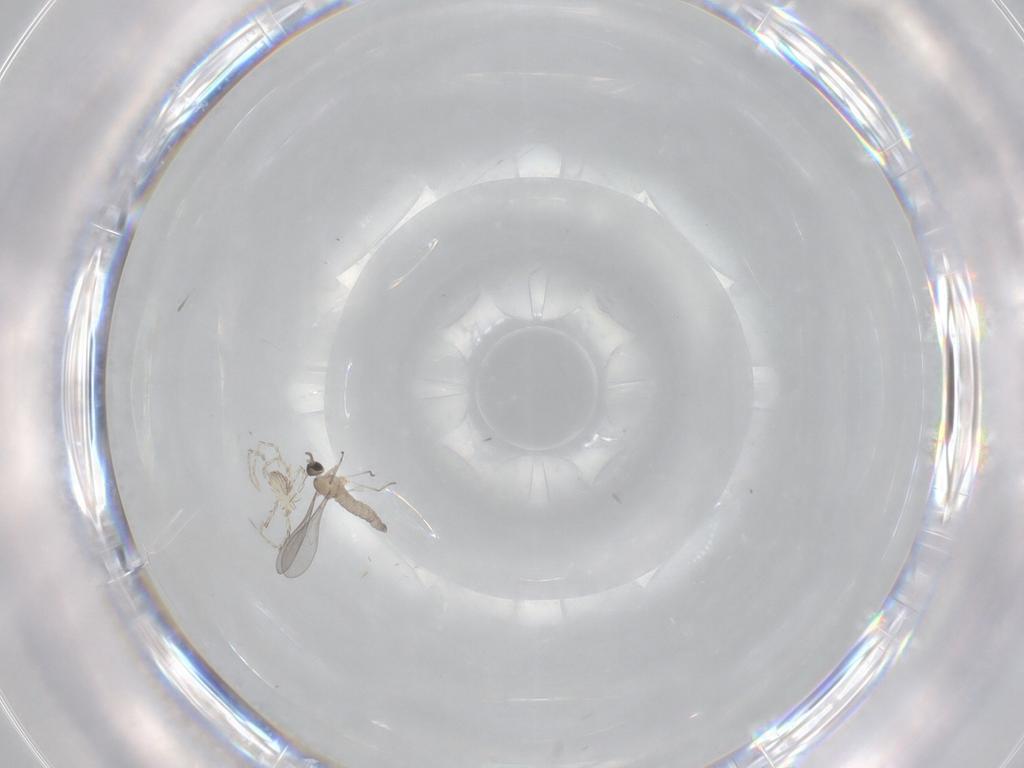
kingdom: Animalia
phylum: Arthropoda
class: Insecta
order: Diptera
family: Cecidomyiidae
